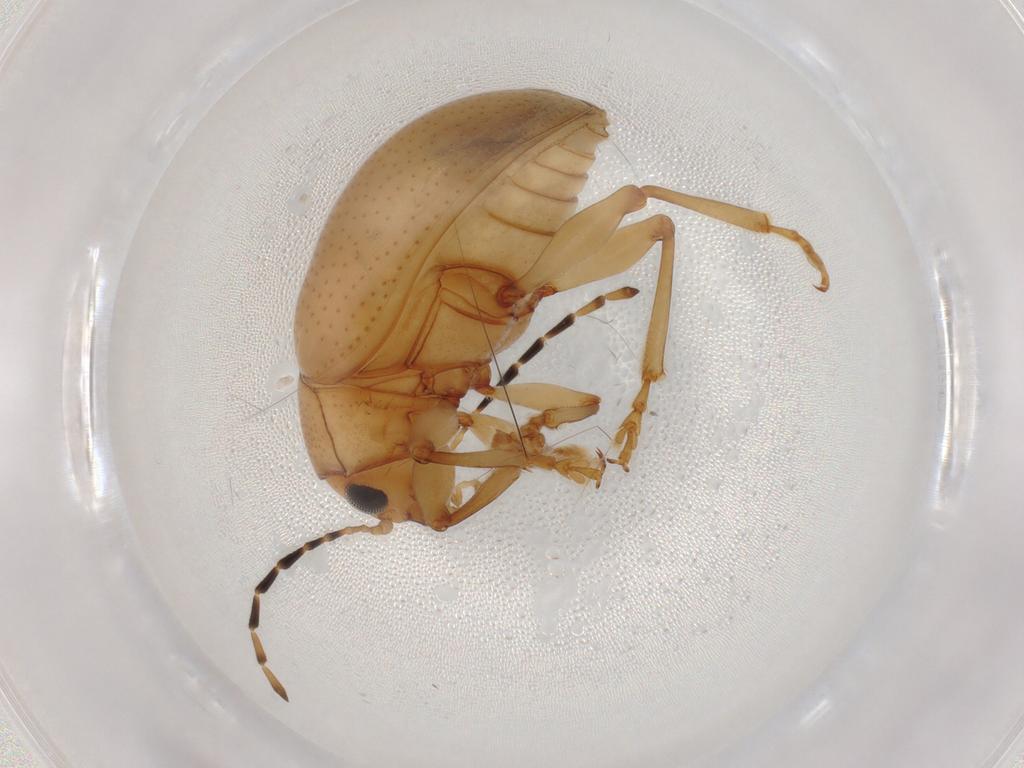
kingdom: Animalia
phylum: Arthropoda
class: Insecta
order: Coleoptera
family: Chrysomelidae
